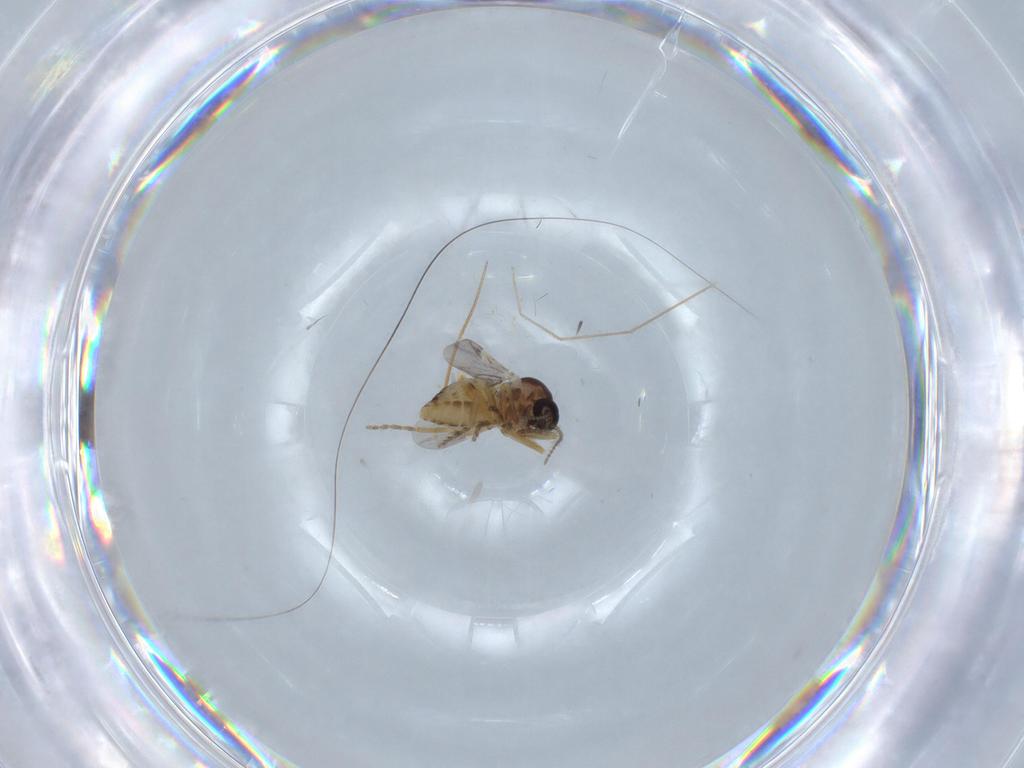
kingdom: Animalia
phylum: Arthropoda
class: Insecta
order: Diptera
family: Ceratopogonidae
